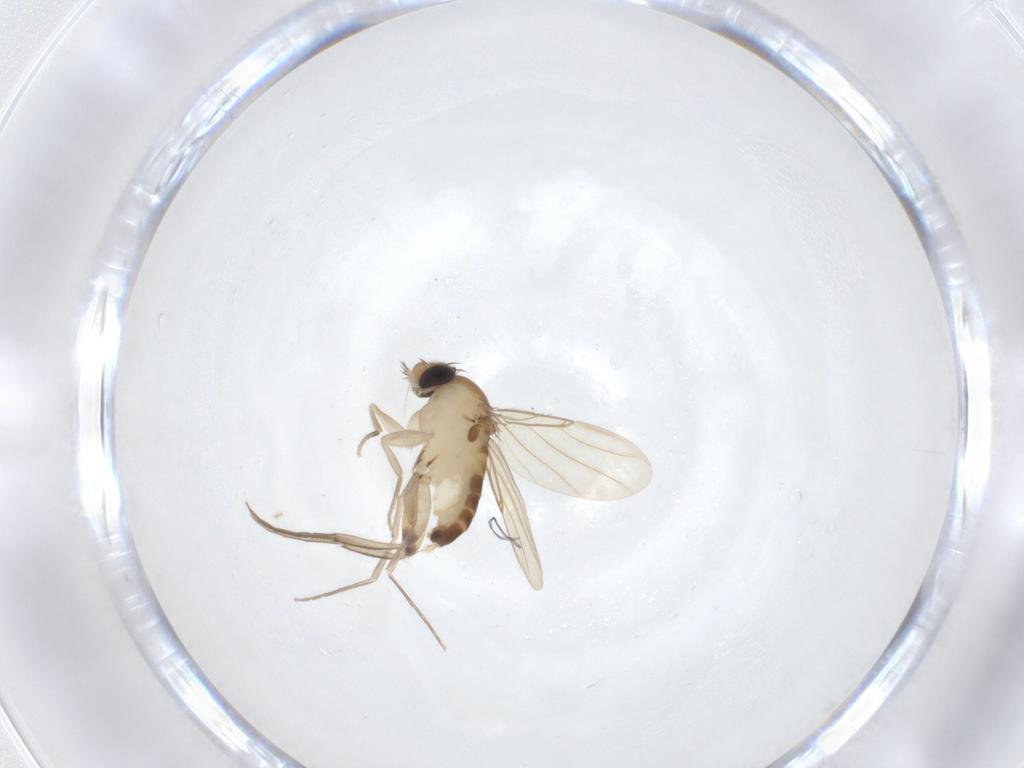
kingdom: Animalia
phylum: Arthropoda
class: Insecta
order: Diptera
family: Phoridae
